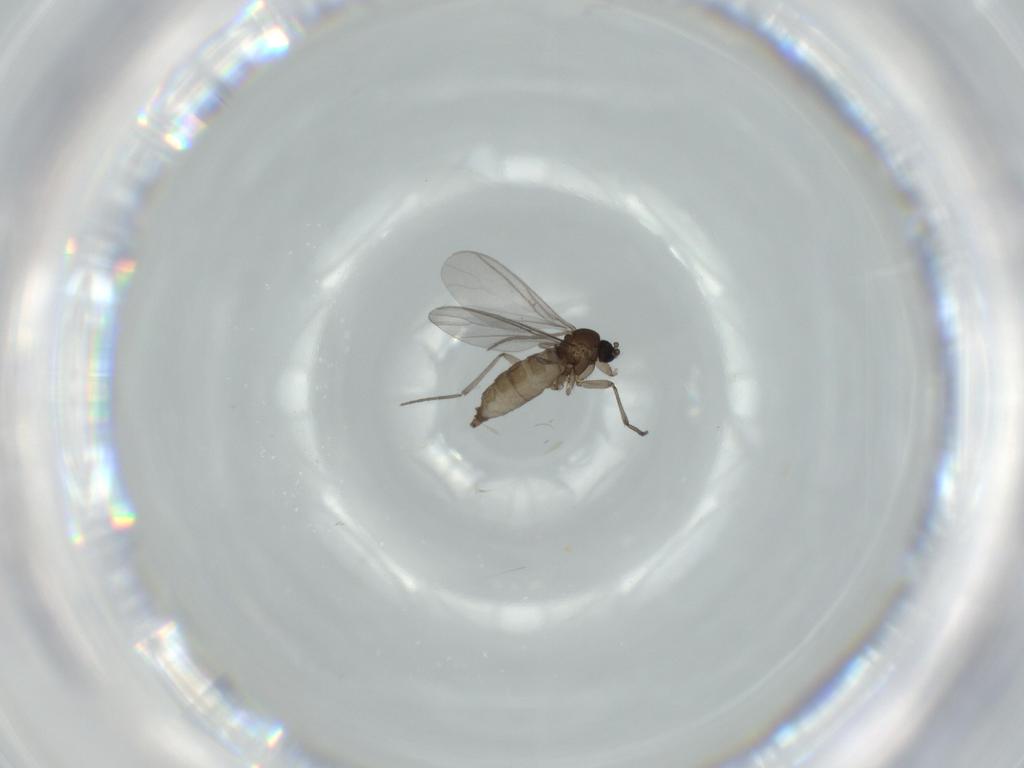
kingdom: Animalia
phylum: Arthropoda
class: Insecta
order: Diptera
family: Sciaridae
